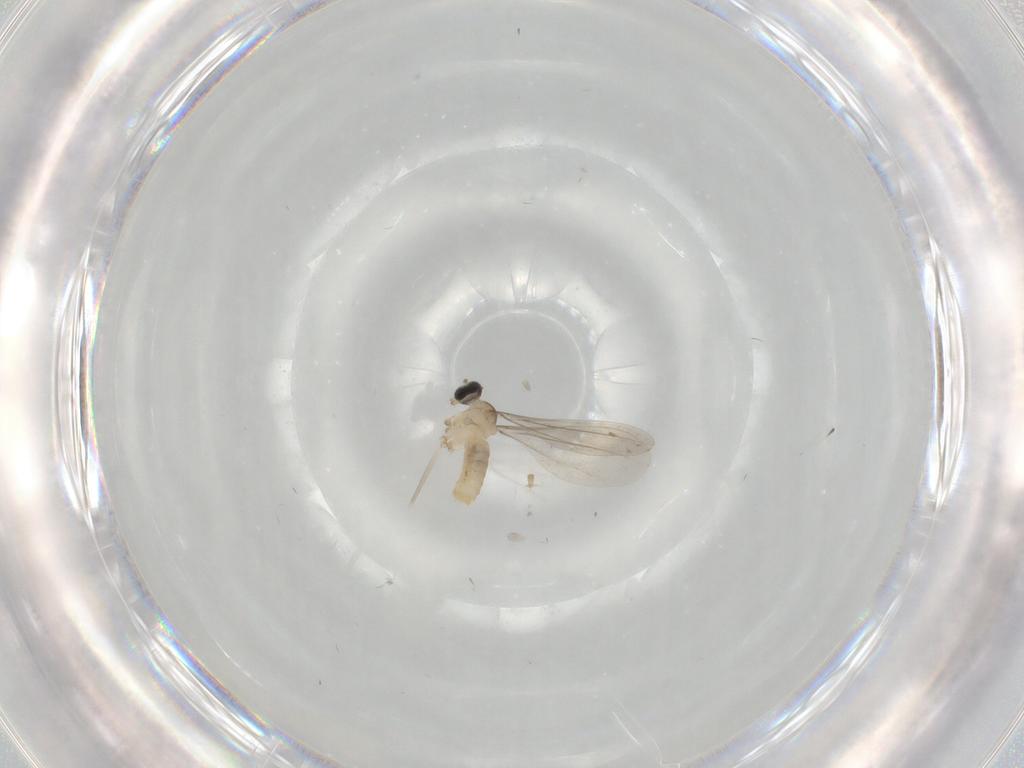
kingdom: Animalia
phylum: Arthropoda
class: Insecta
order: Diptera
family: Cecidomyiidae
